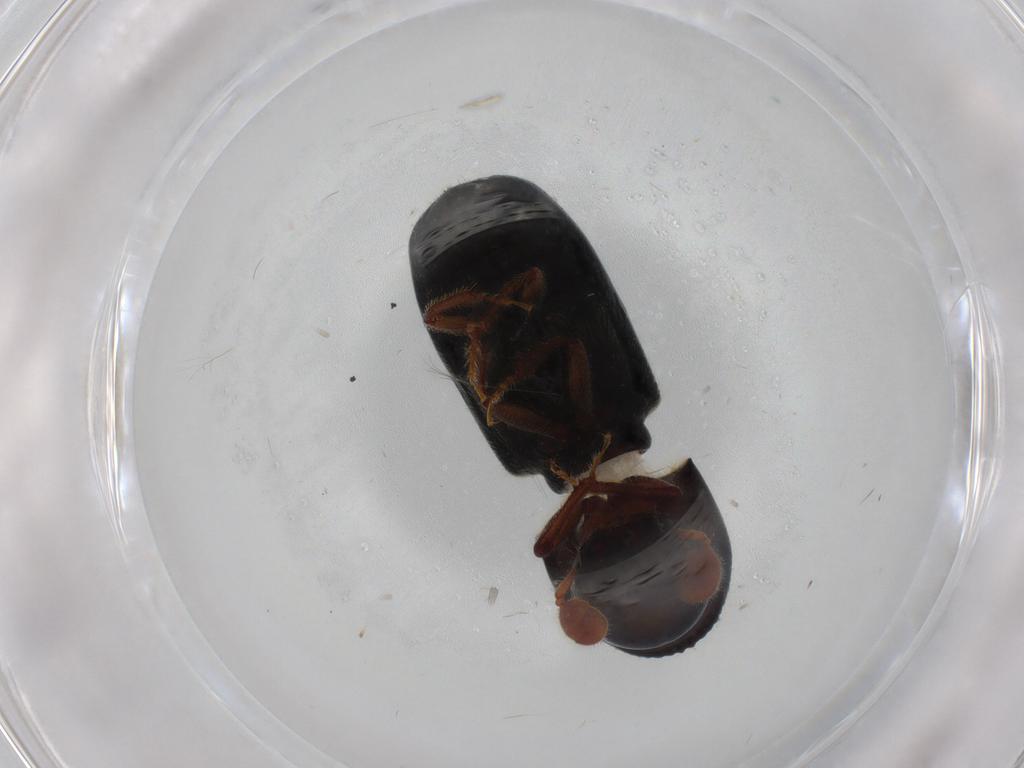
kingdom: Animalia
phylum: Arthropoda
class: Insecta
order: Coleoptera
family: Curculionidae
